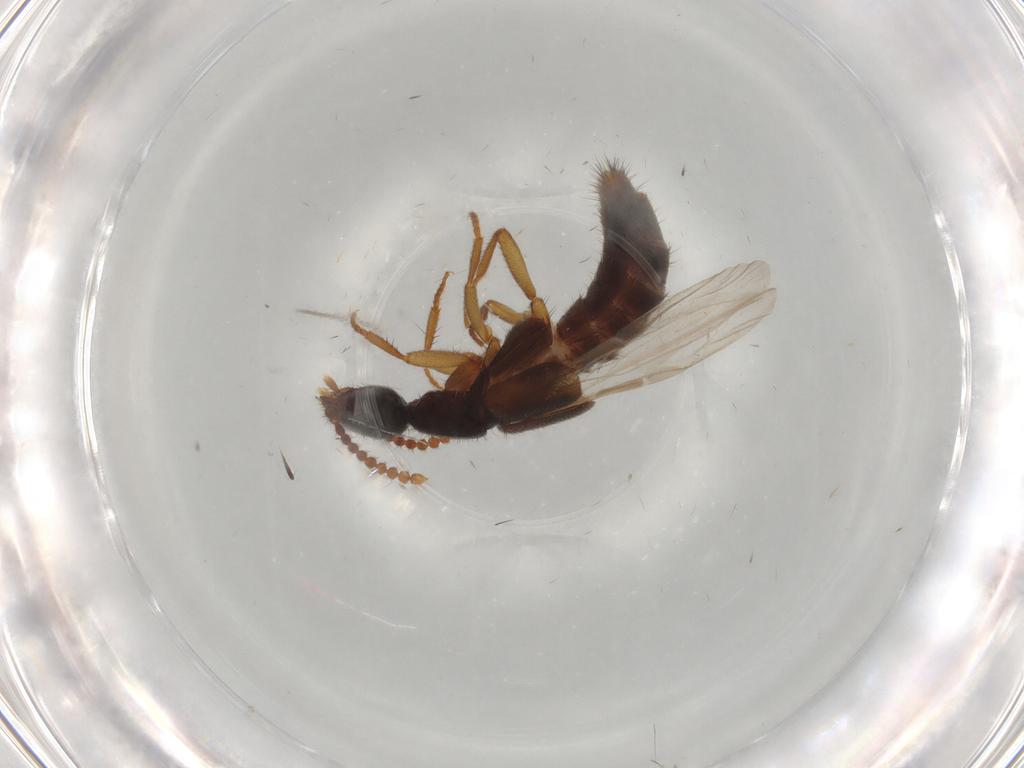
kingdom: Animalia
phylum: Arthropoda
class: Insecta
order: Coleoptera
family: Staphylinidae
